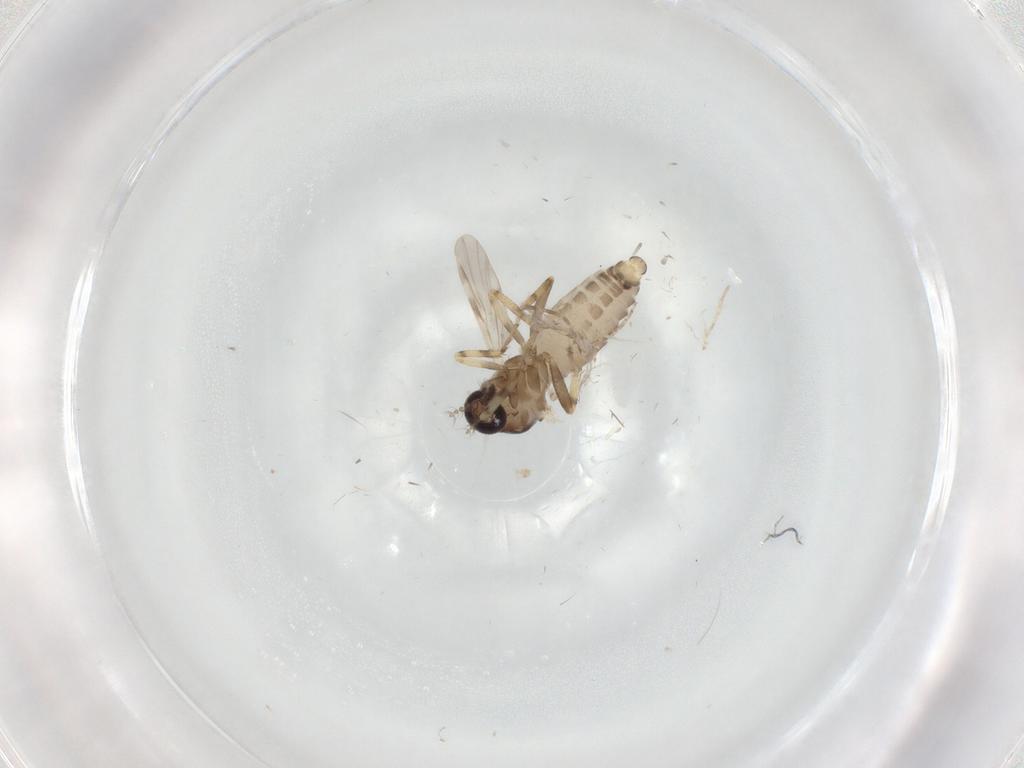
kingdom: Animalia
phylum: Arthropoda
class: Insecta
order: Diptera
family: Ceratopogonidae
